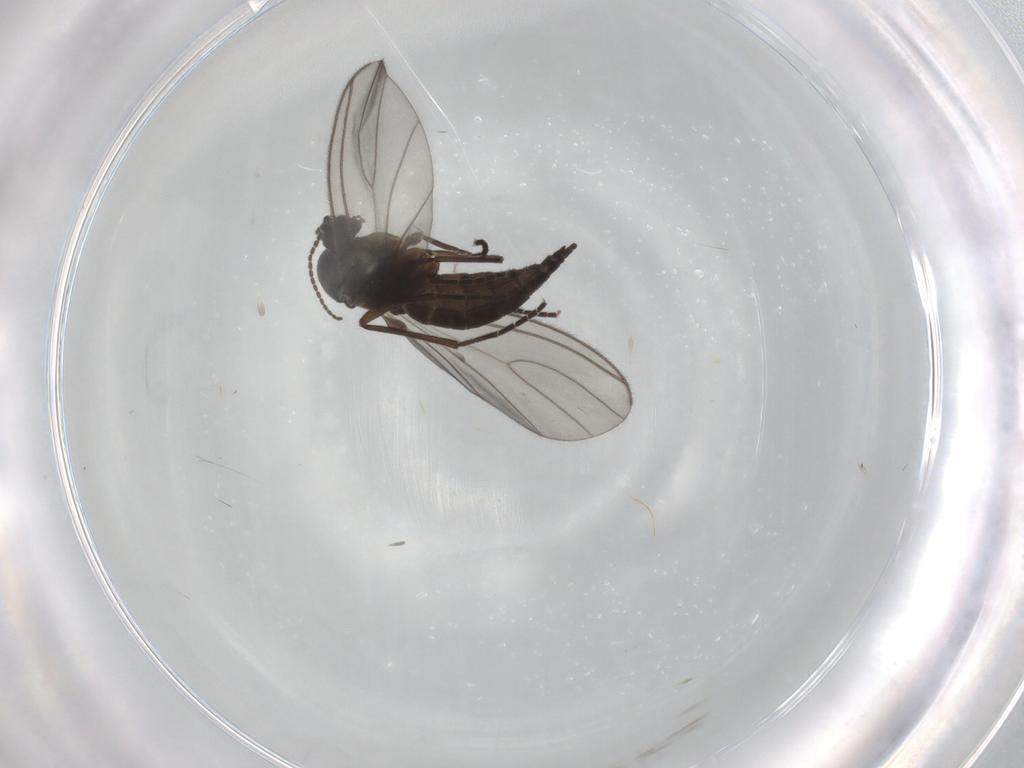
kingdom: Animalia
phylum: Arthropoda
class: Insecta
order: Diptera
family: Sciaridae
